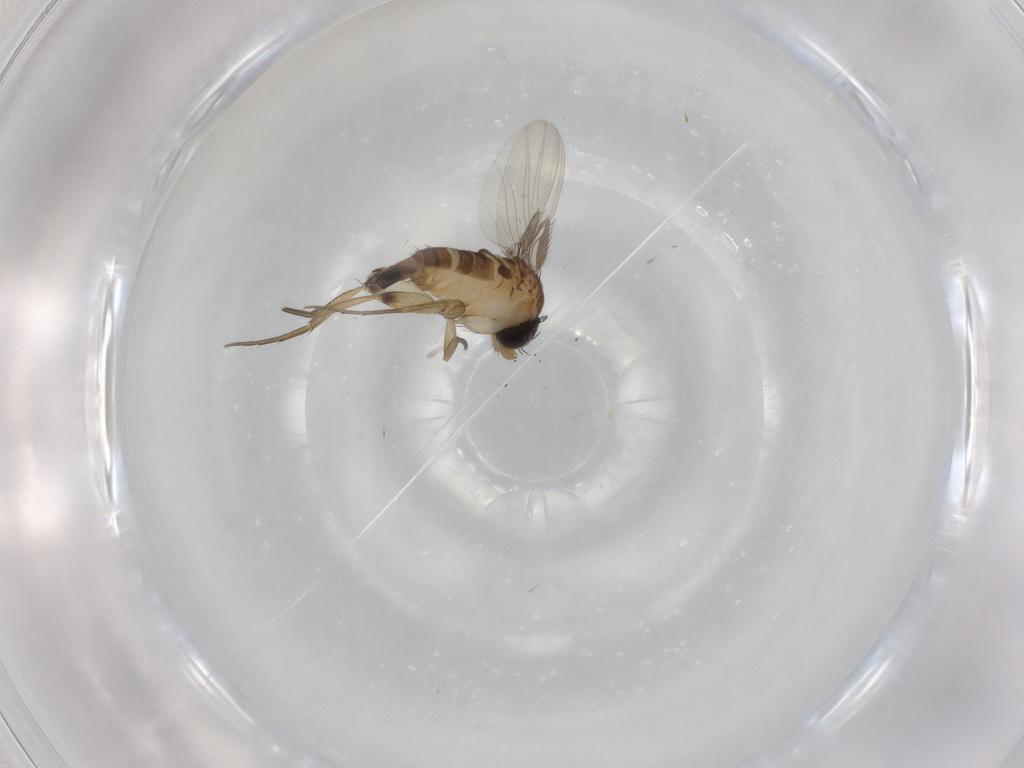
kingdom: Animalia
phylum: Arthropoda
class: Insecta
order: Diptera
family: Phoridae
